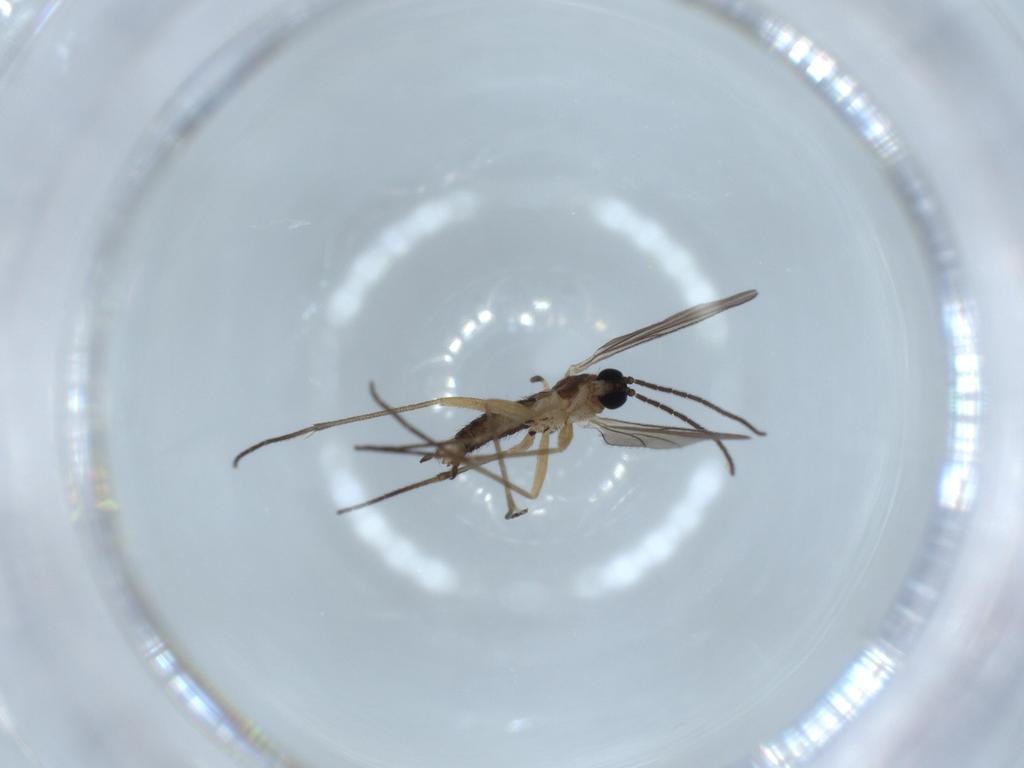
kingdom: Animalia
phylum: Arthropoda
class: Insecta
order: Diptera
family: Sciaridae
